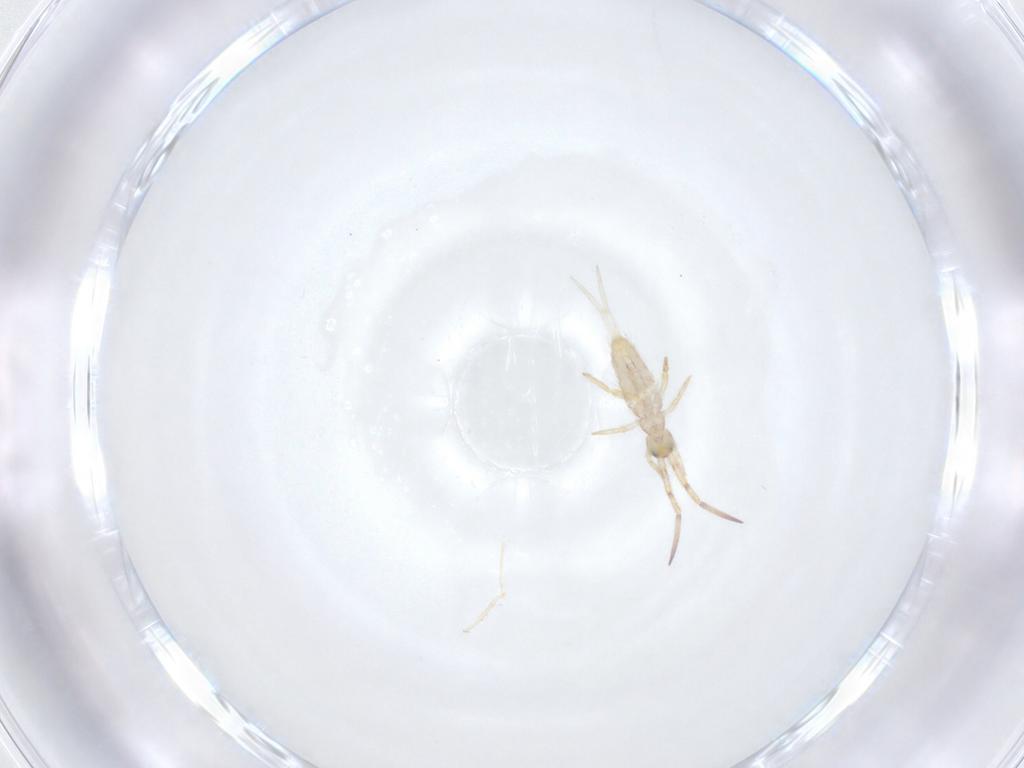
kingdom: Animalia
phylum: Arthropoda
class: Collembola
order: Entomobryomorpha
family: Entomobryidae
